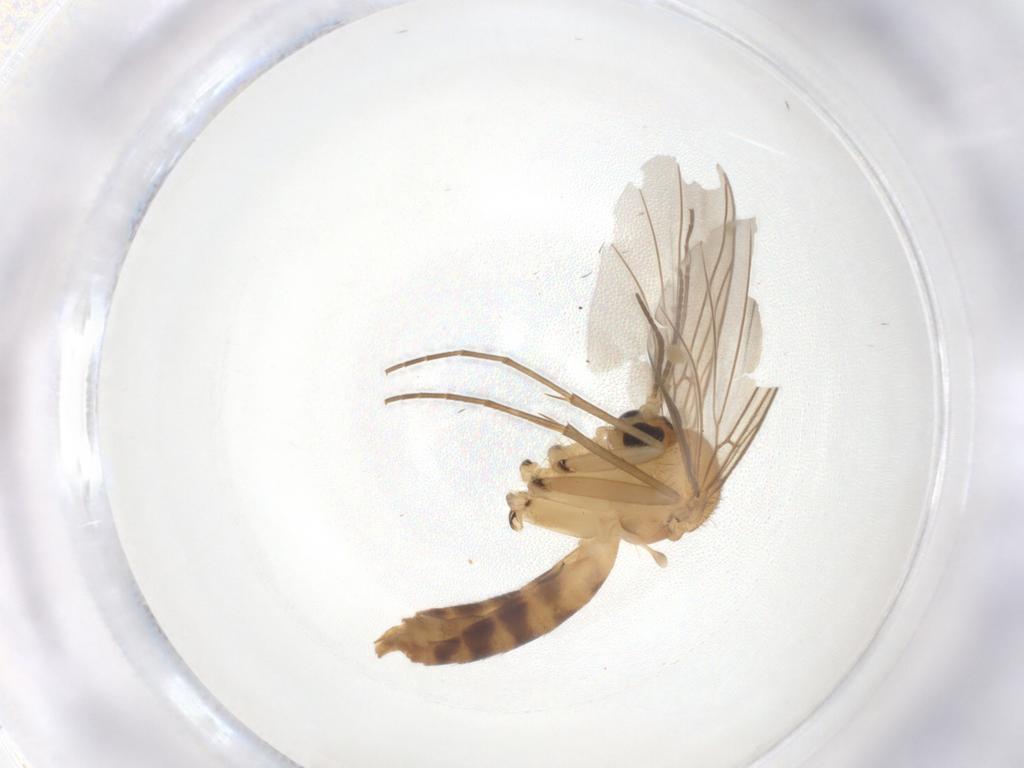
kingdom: Animalia
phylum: Arthropoda
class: Insecta
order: Diptera
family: Mycetophilidae
